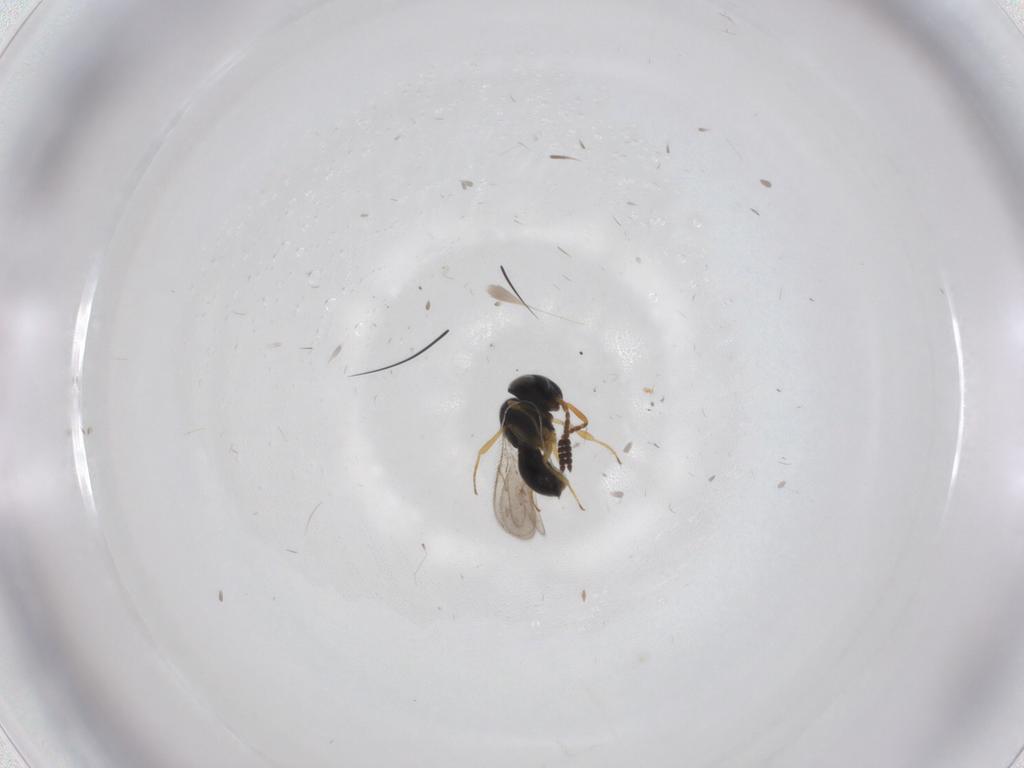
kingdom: Animalia
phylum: Arthropoda
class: Insecta
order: Hymenoptera
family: Scelionidae
